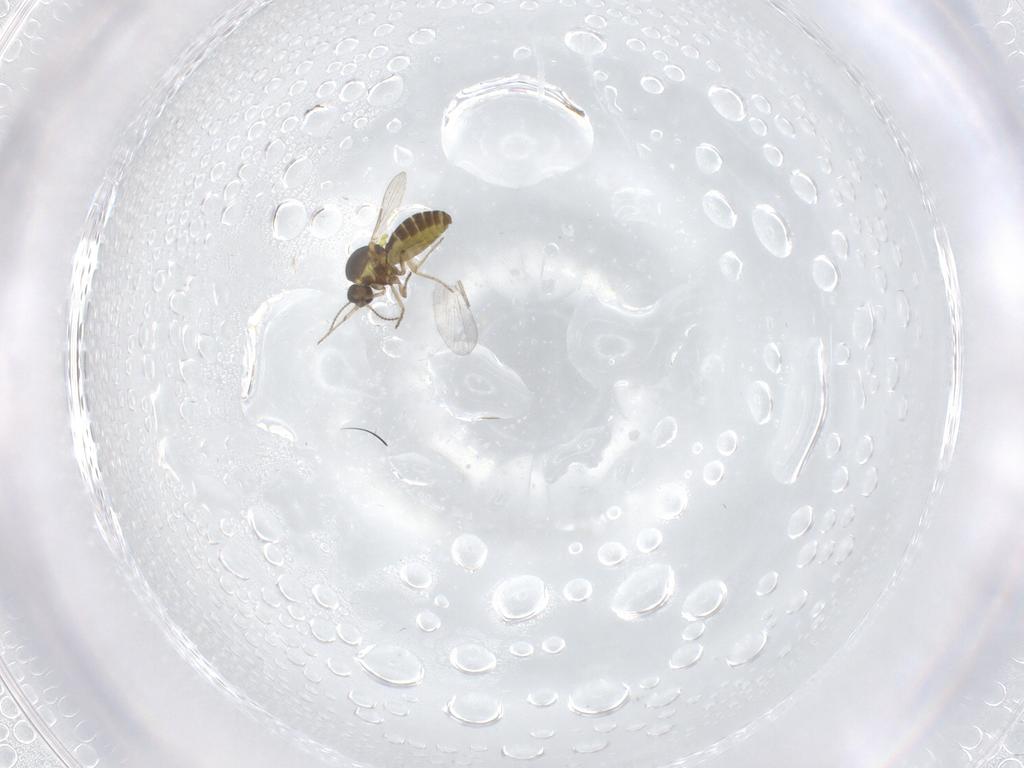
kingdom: Animalia
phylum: Arthropoda
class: Insecta
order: Diptera
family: Ceratopogonidae
